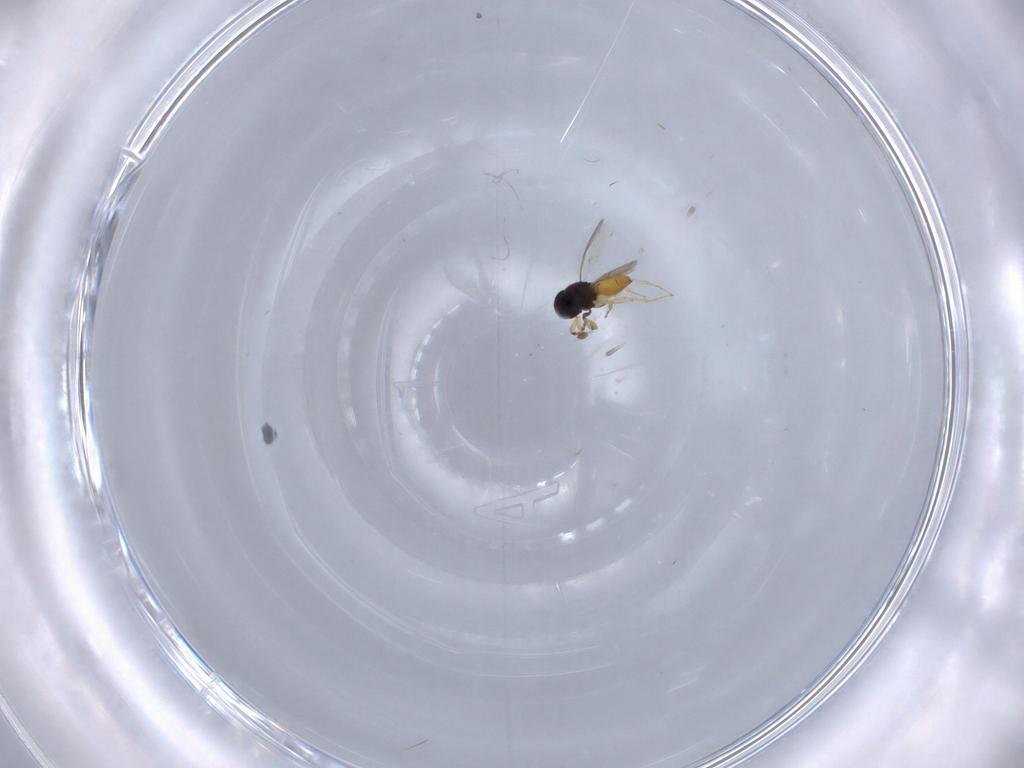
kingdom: Animalia
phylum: Arthropoda
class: Insecta
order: Hymenoptera
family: Scelionidae
